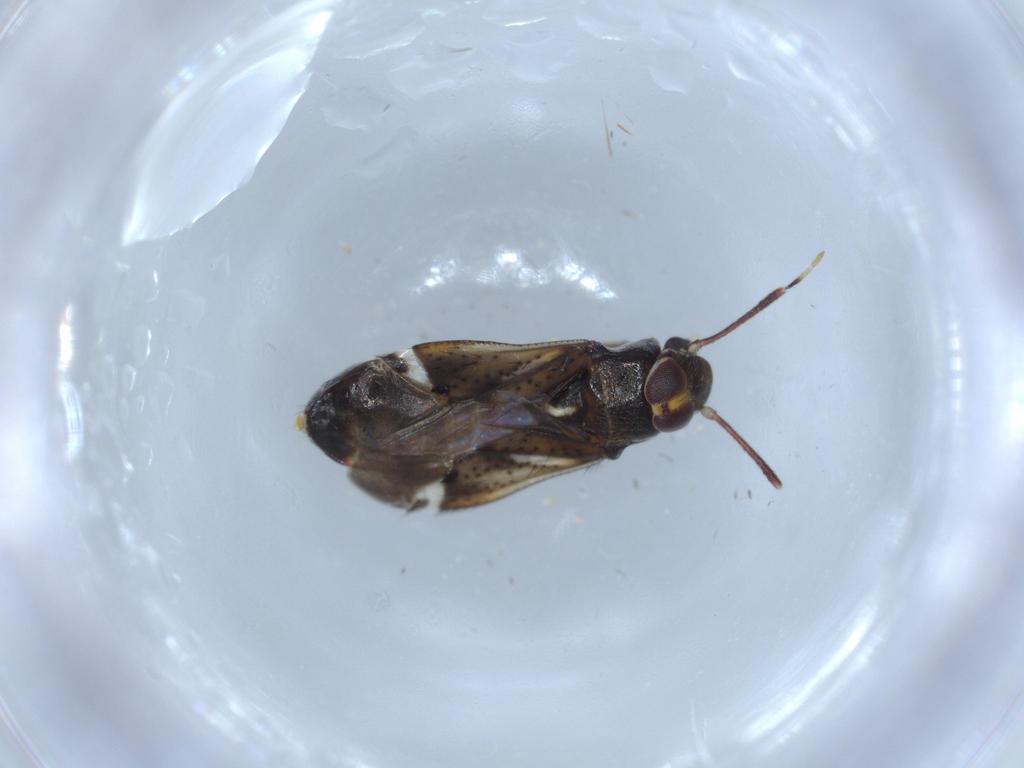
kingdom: Animalia
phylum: Arthropoda
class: Insecta
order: Hemiptera
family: Miridae
